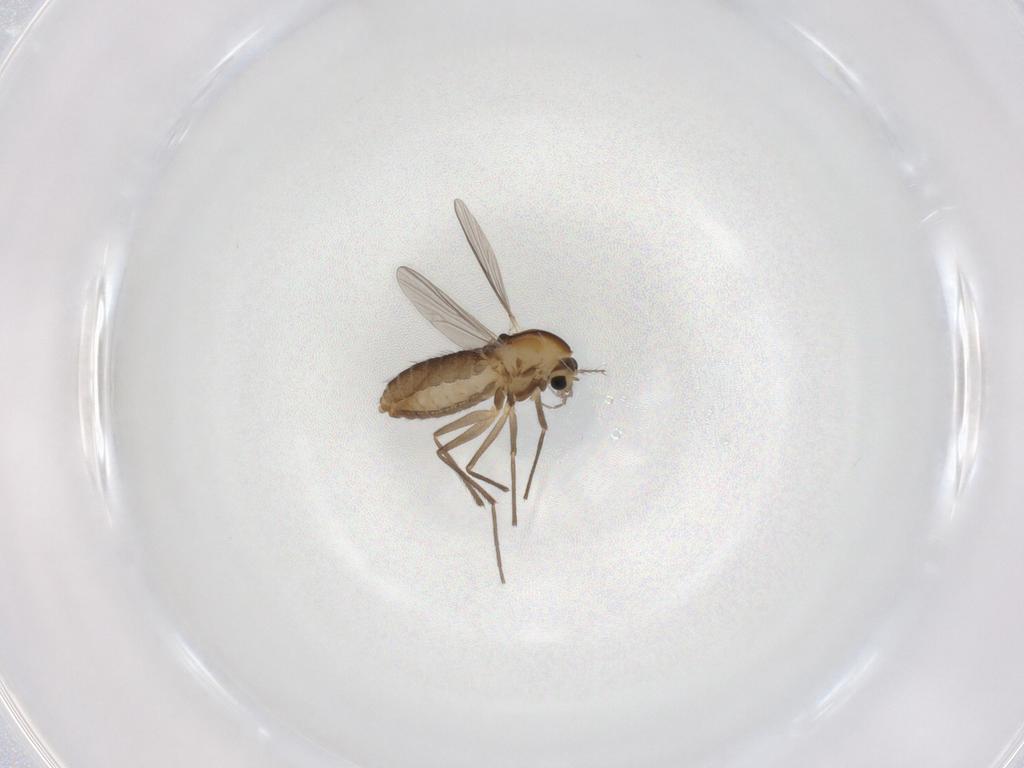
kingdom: Animalia
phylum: Arthropoda
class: Insecta
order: Diptera
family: Chironomidae
